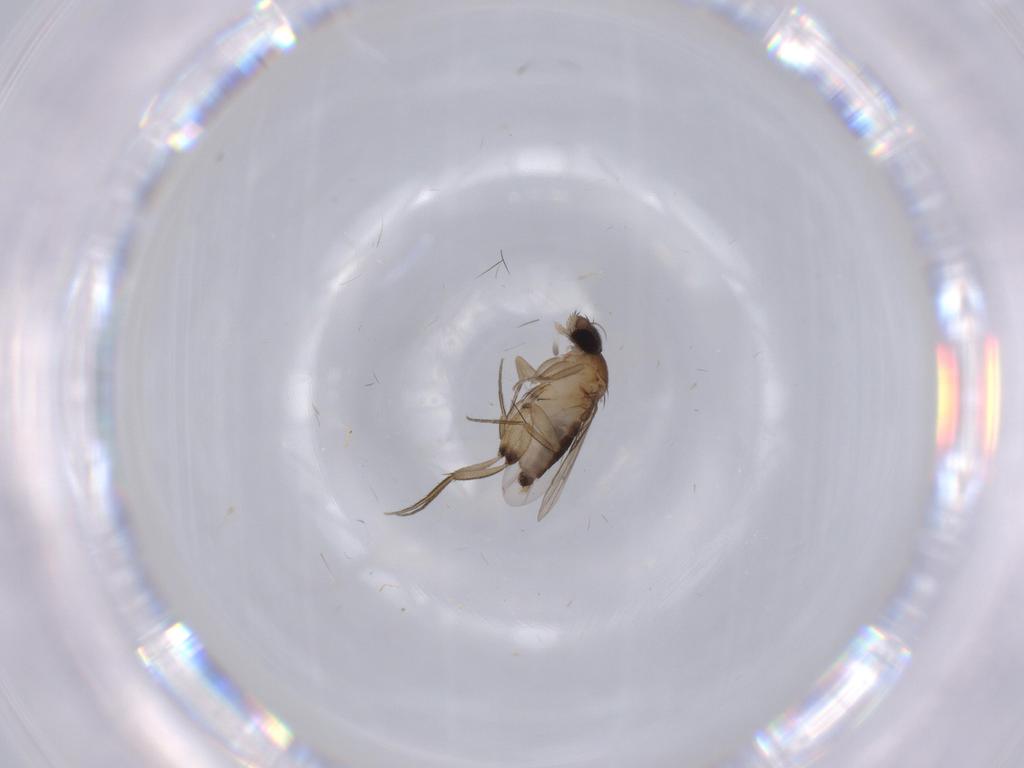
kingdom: Animalia
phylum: Arthropoda
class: Insecta
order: Diptera
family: Phoridae
